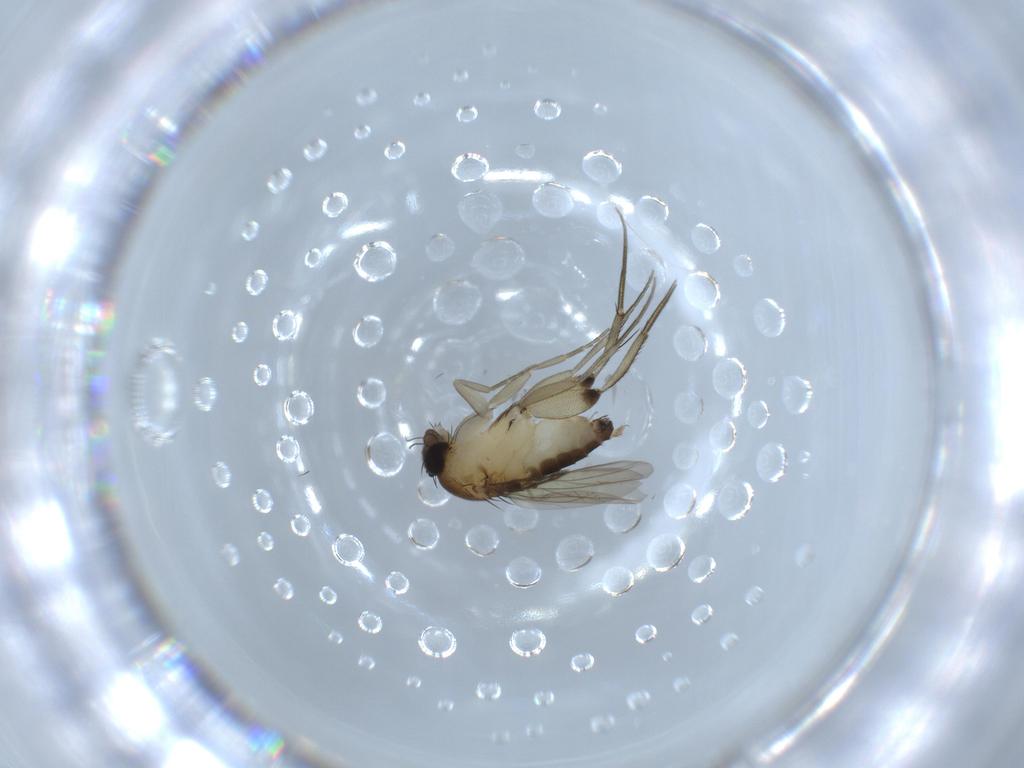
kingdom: Animalia
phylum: Arthropoda
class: Insecta
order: Diptera
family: Phoridae
